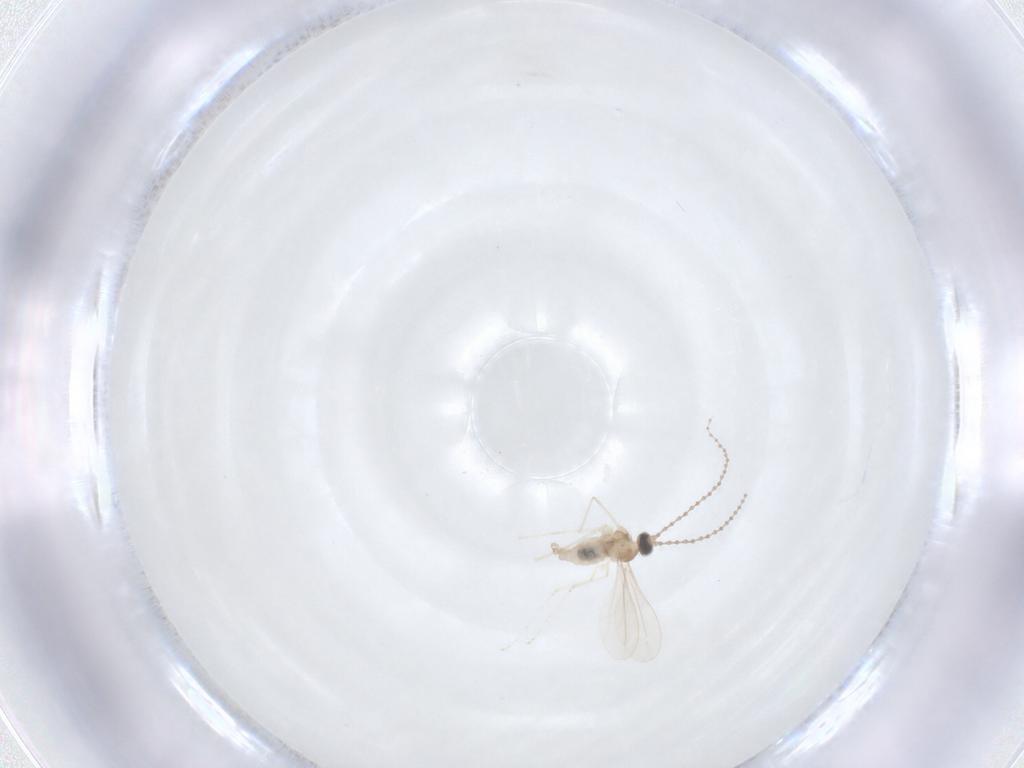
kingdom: Animalia
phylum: Arthropoda
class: Insecta
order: Diptera
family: Cecidomyiidae
